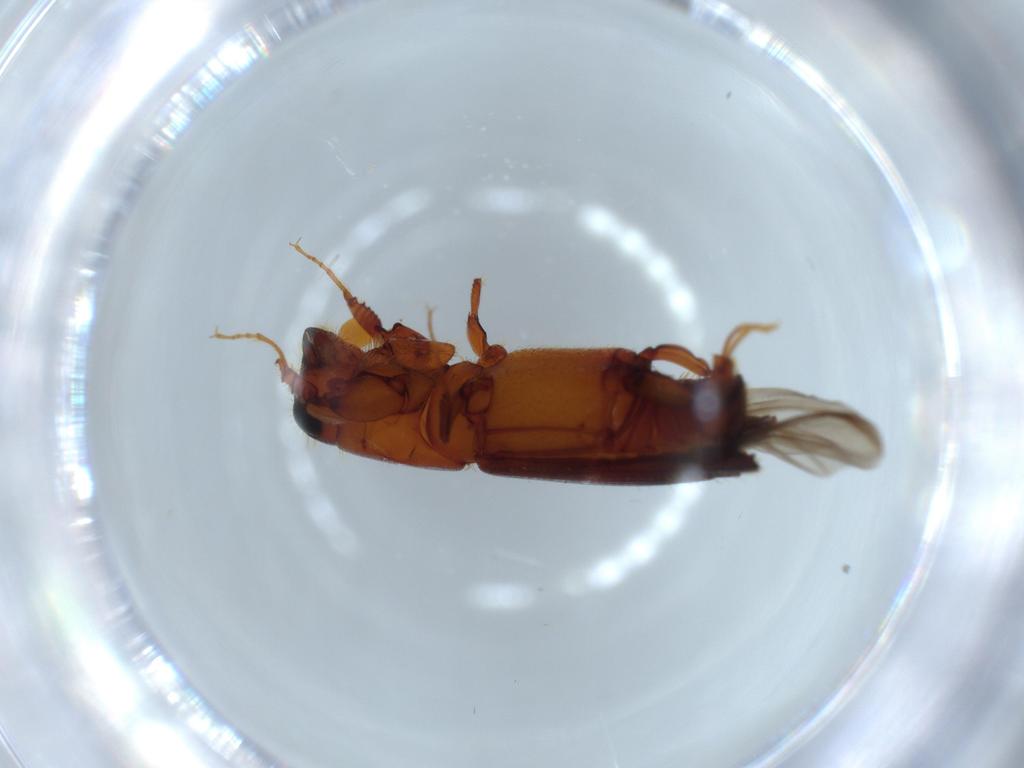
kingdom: Animalia
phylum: Arthropoda
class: Insecta
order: Coleoptera
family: Curculionidae
